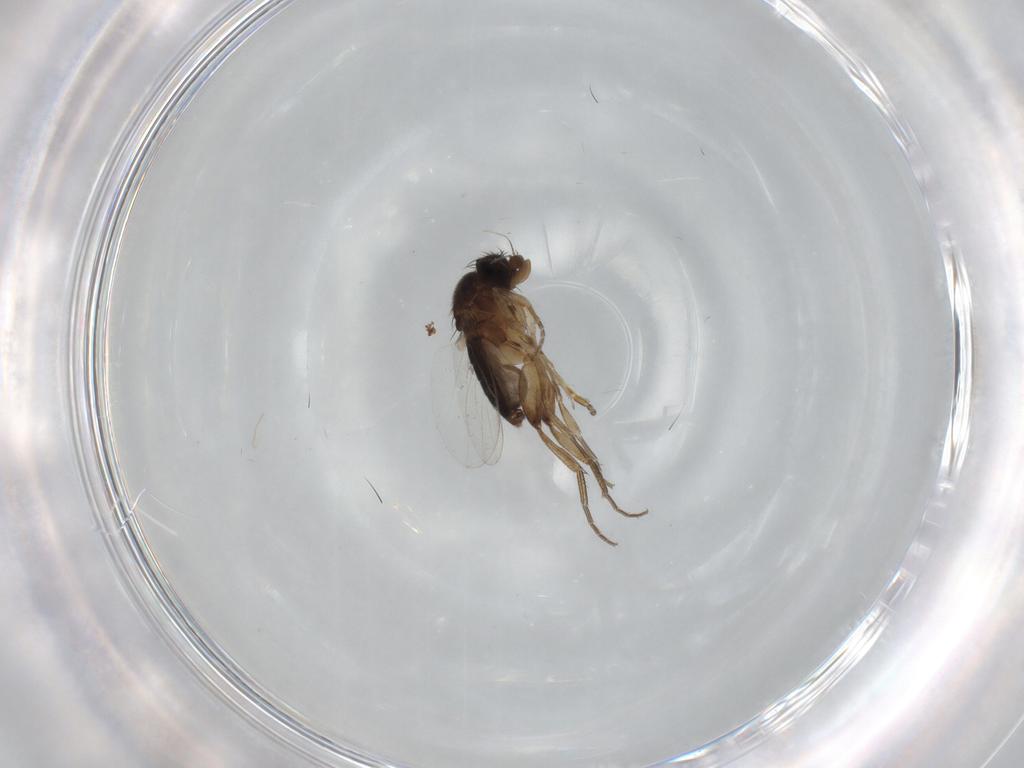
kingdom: Animalia
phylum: Arthropoda
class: Insecta
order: Diptera
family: Phoridae
